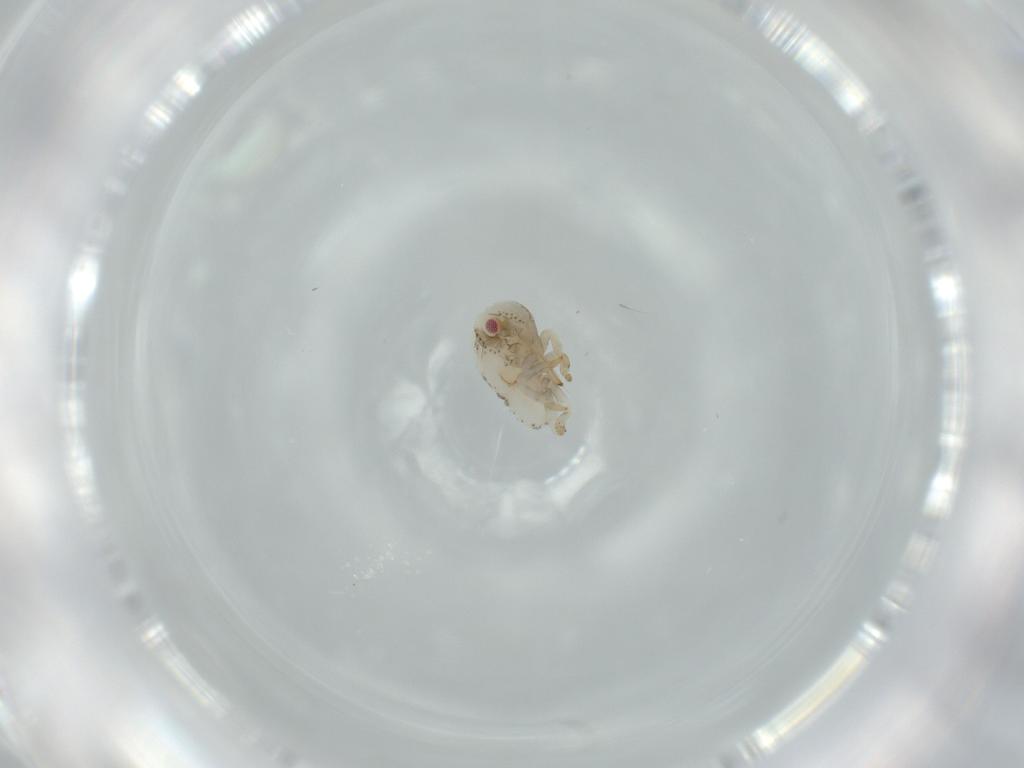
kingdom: Animalia
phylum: Arthropoda
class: Insecta
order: Hemiptera
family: Acanaloniidae
